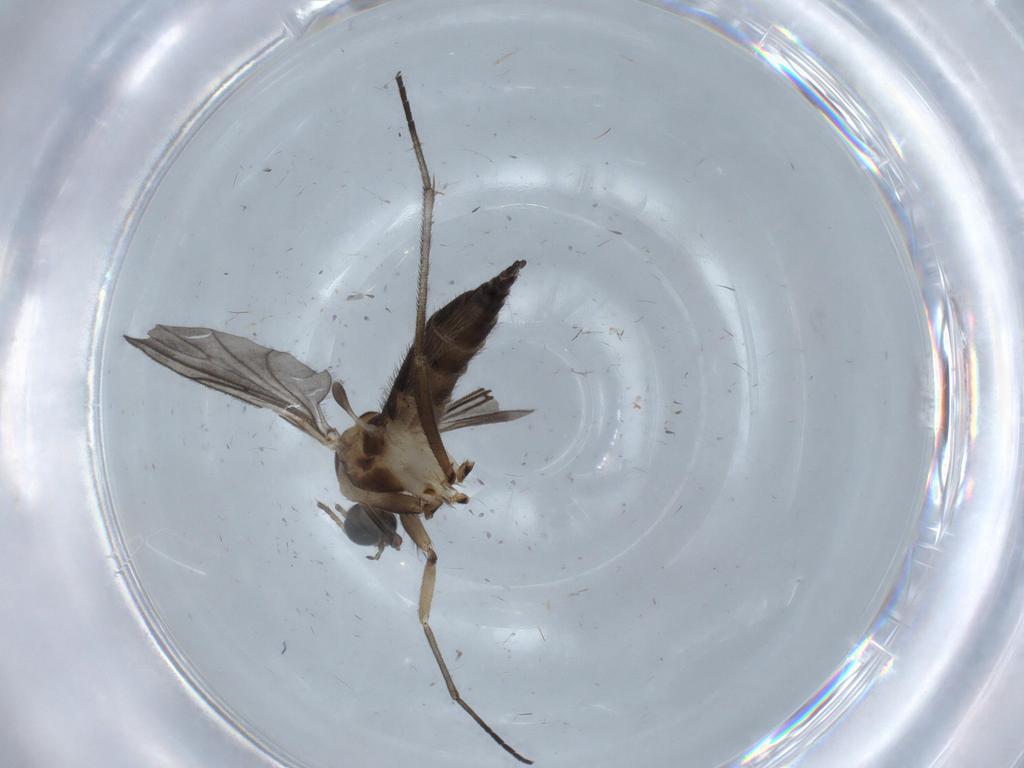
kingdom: Animalia
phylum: Arthropoda
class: Insecta
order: Diptera
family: Sciaridae
